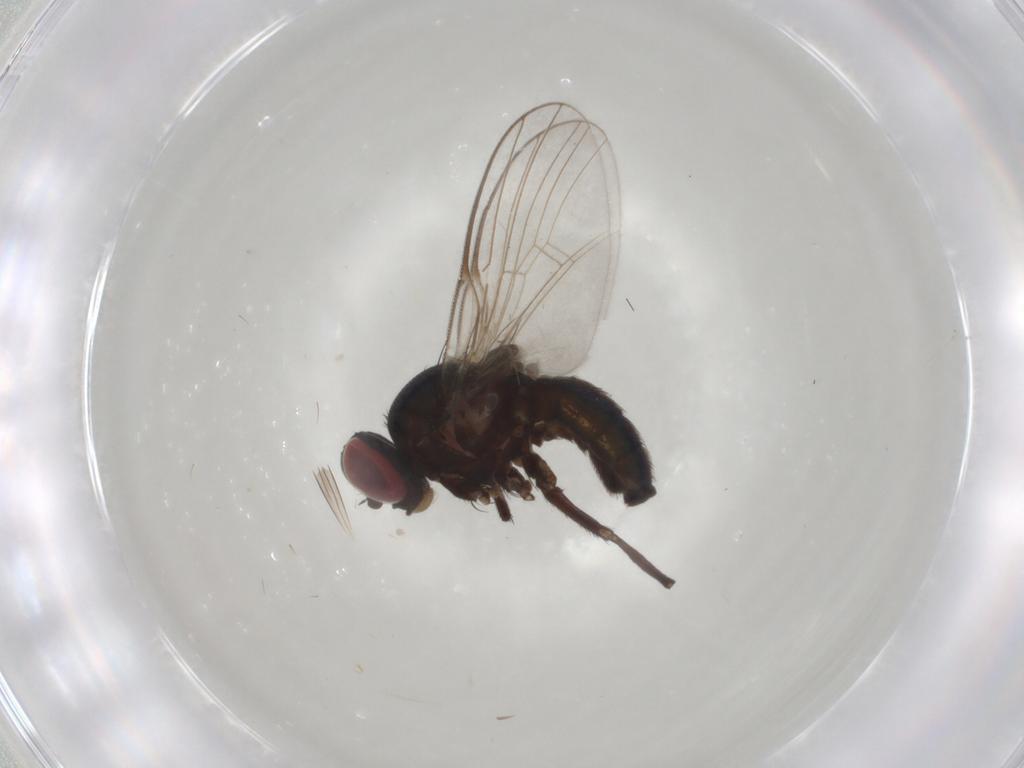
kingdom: Animalia
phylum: Arthropoda
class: Insecta
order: Diptera
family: Agromyzidae
